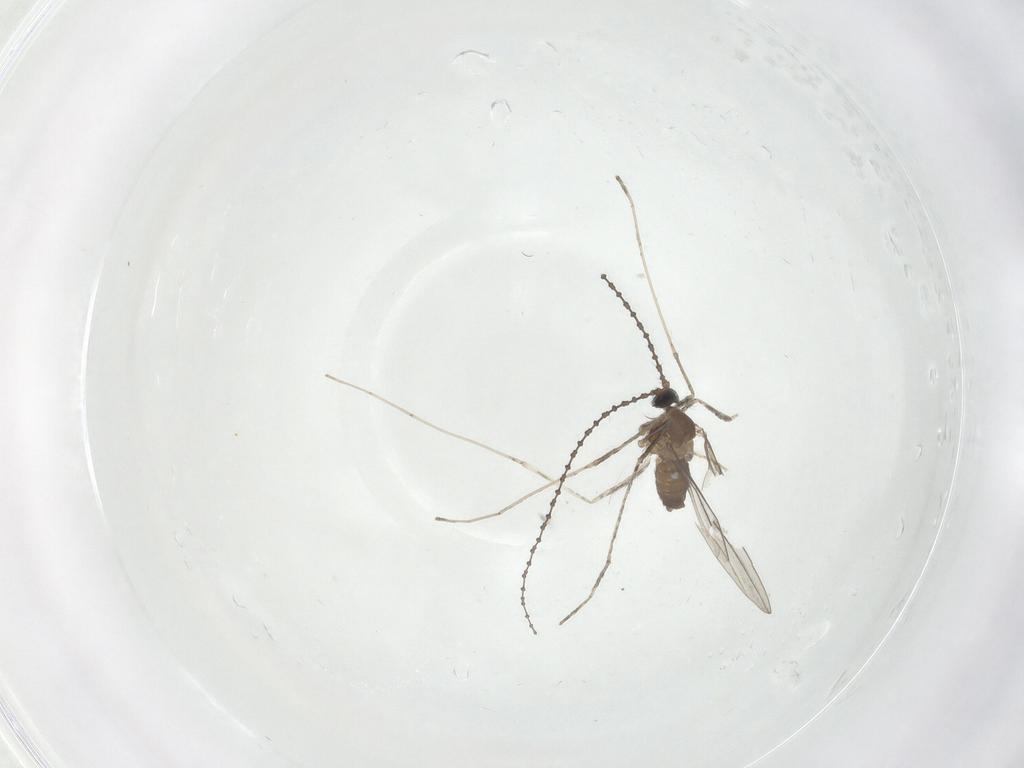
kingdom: Animalia
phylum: Arthropoda
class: Insecta
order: Diptera
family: Cecidomyiidae
